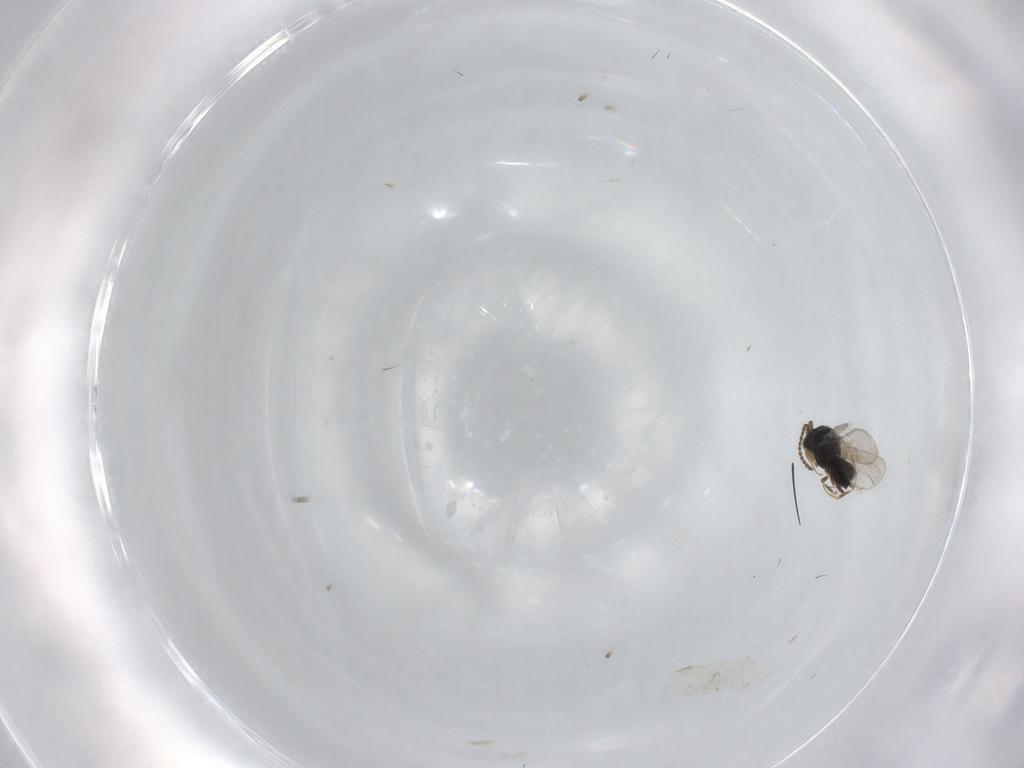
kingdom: Animalia
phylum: Arthropoda
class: Insecta
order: Hymenoptera
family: Scelionidae
